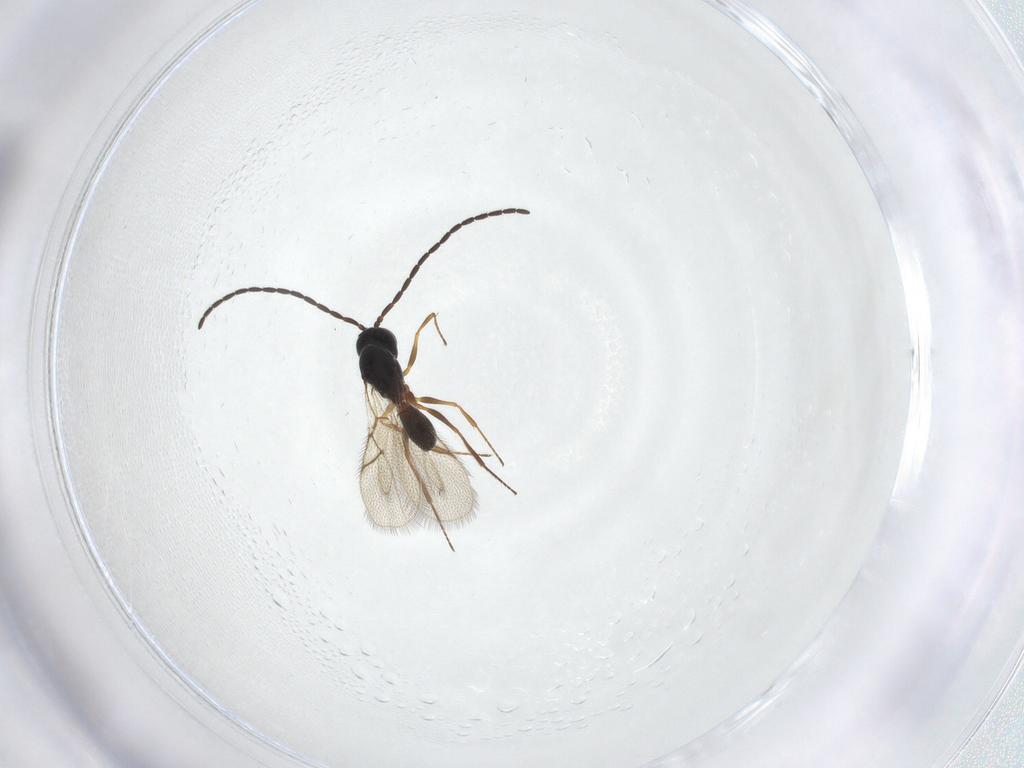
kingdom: Animalia
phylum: Arthropoda
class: Insecta
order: Hymenoptera
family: Figitidae
